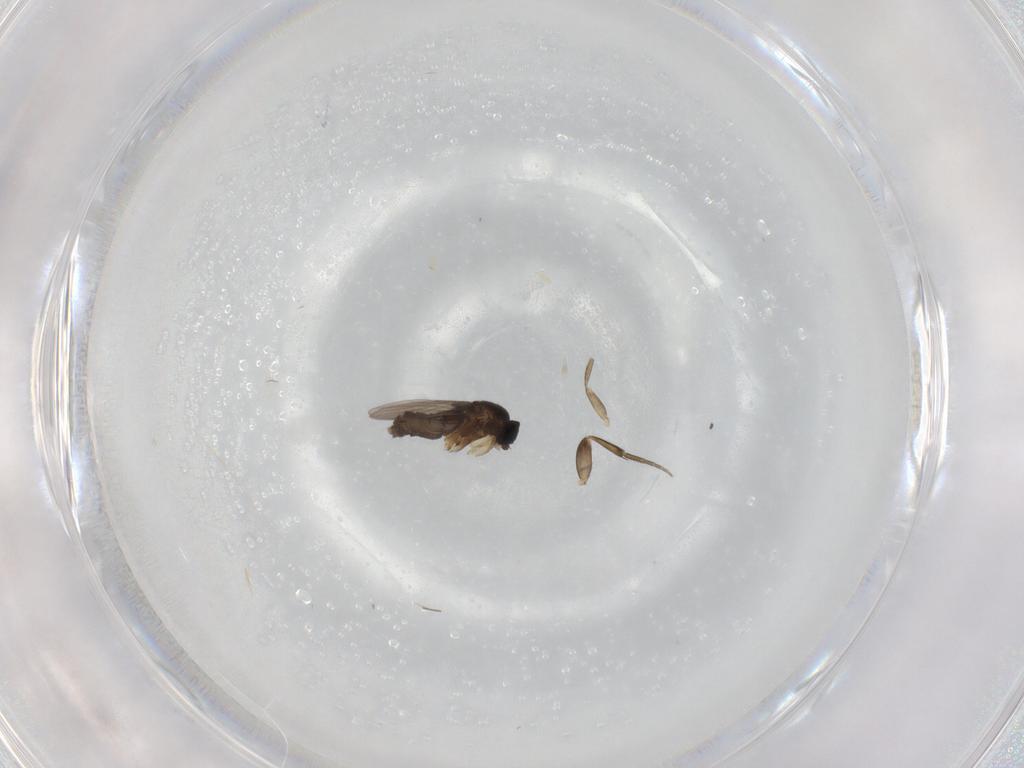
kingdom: Animalia
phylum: Arthropoda
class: Insecta
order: Diptera
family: Phoridae
